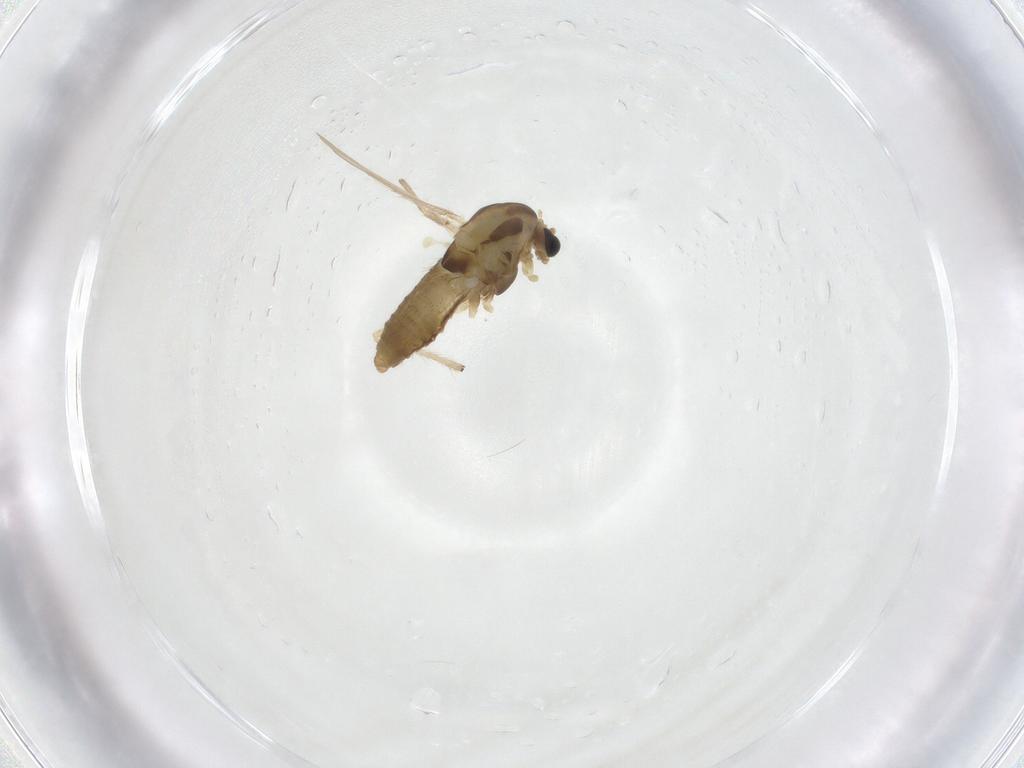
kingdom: Animalia
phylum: Arthropoda
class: Insecta
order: Diptera
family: Chironomidae
